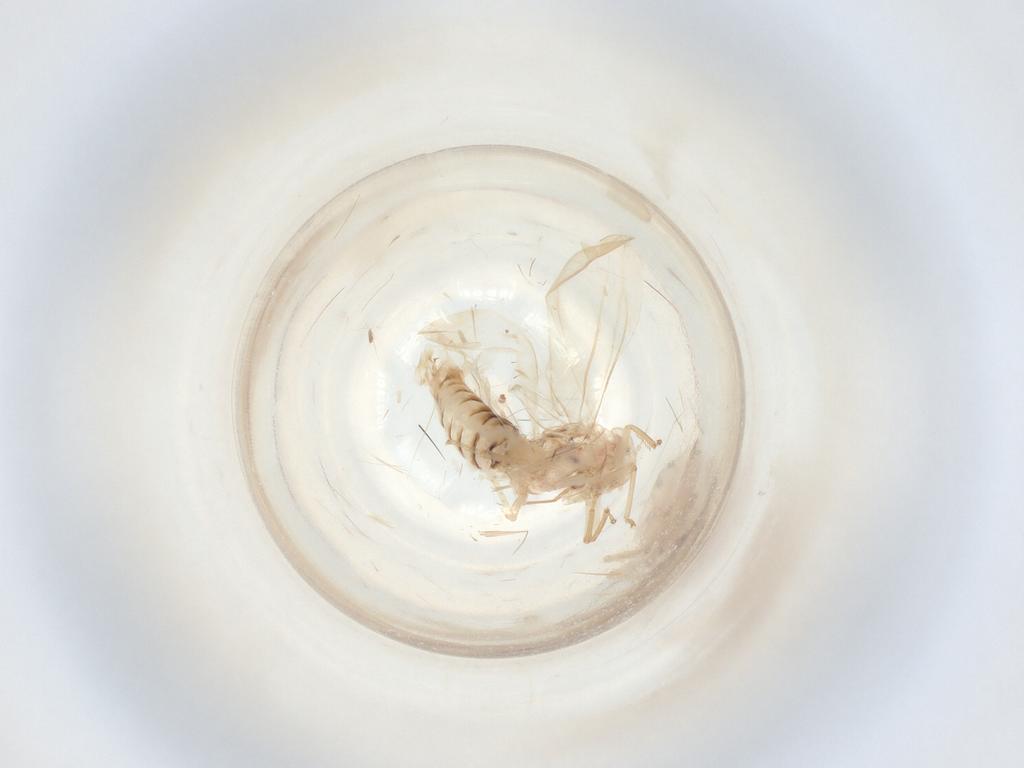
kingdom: Animalia
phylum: Arthropoda
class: Insecta
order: Hemiptera
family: Cicadellidae
